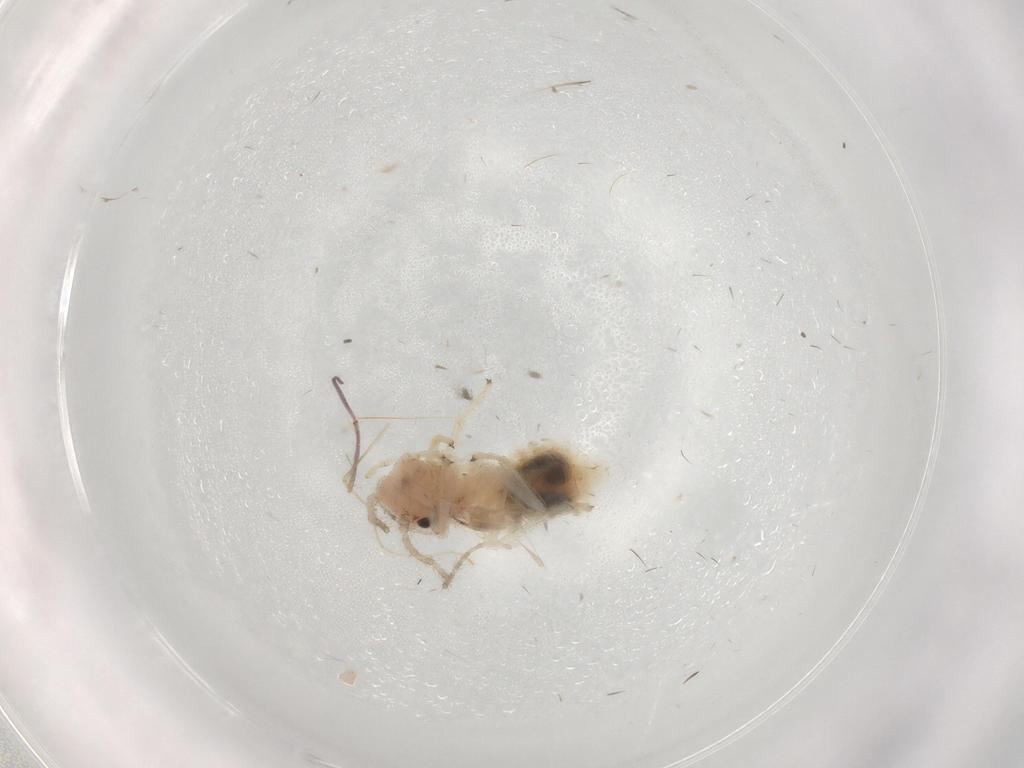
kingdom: Animalia
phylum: Arthropoda
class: Insecta
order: Psocodea
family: Amphipsocidae
